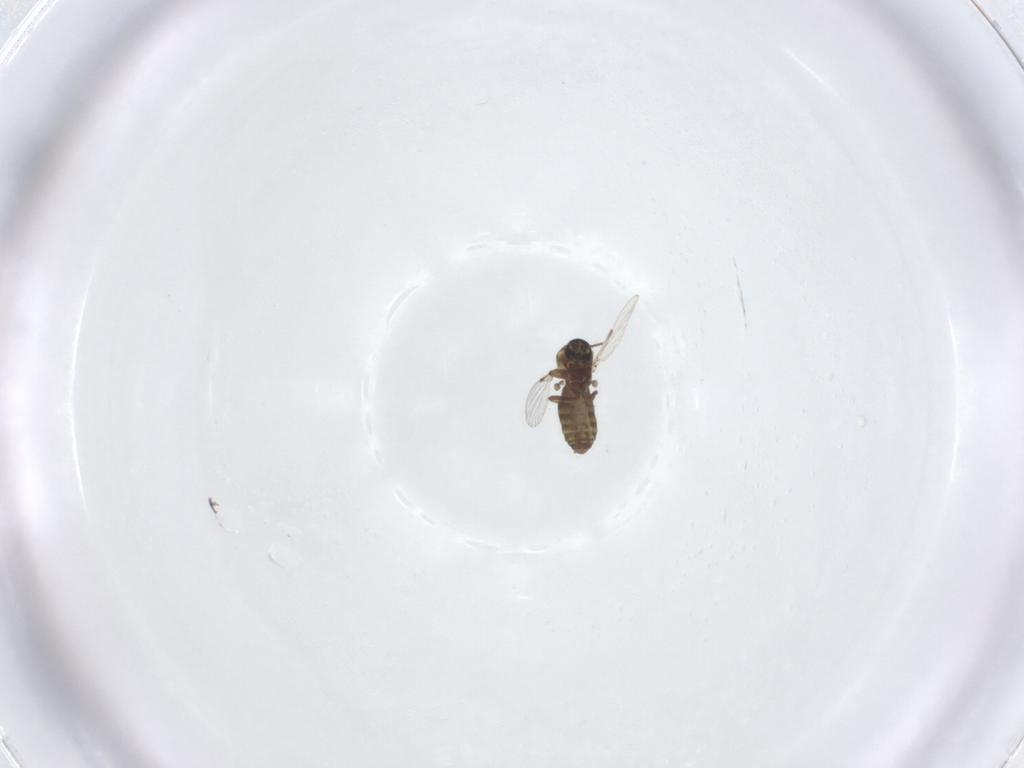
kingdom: Animalia
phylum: Arthropoda
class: Insecta
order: Diptera
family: Ceratopogonidae
